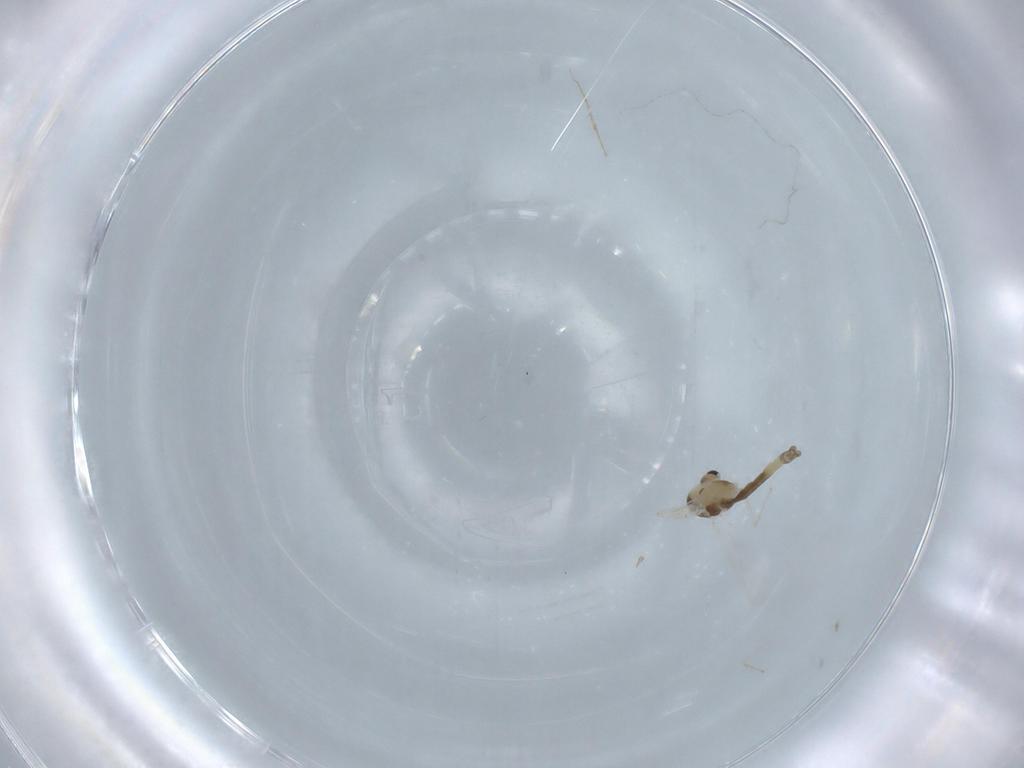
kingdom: Animalia
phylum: Arthropoda
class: Insecta
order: Diptera
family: Chironomidae
